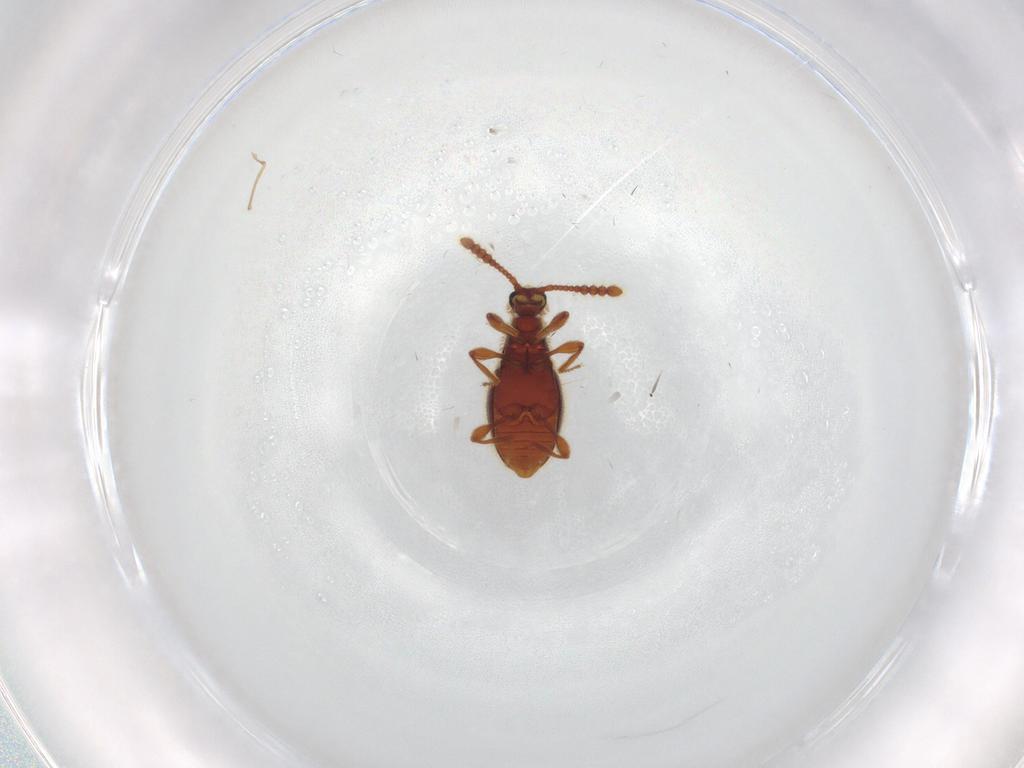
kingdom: Animalia
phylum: Arthropoda
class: Insecta
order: Coleoptera
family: Staphylinidae
